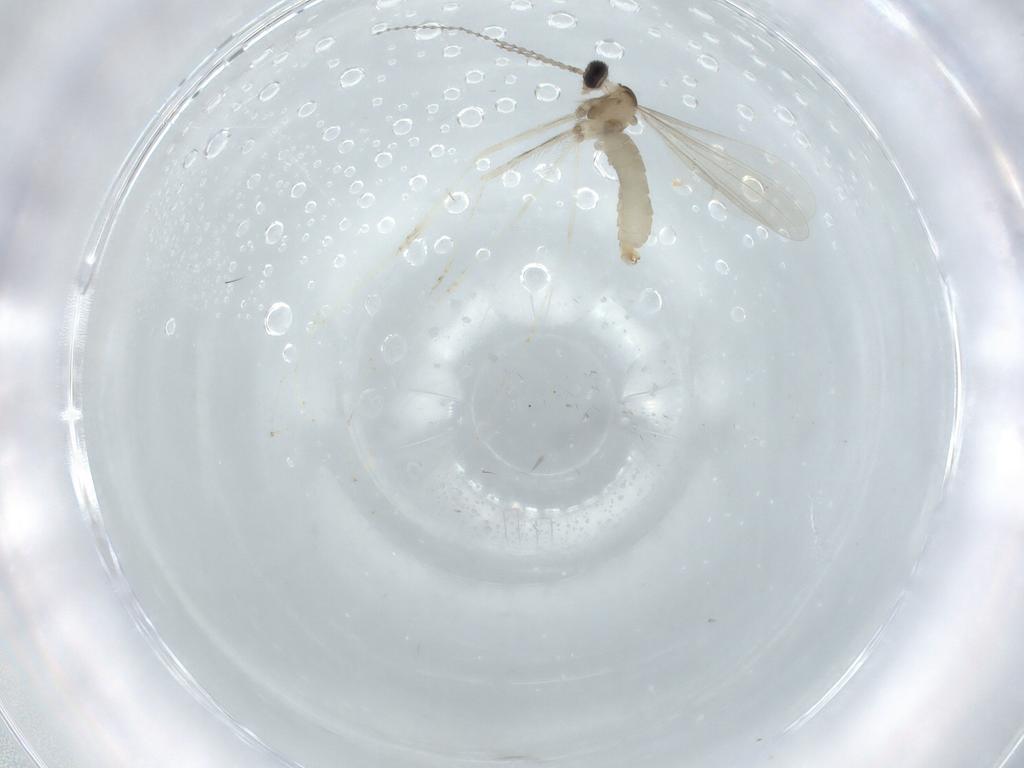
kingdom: Animalia
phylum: Arthropoda
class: Insecta
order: Diptera
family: Cecidomyiidae
